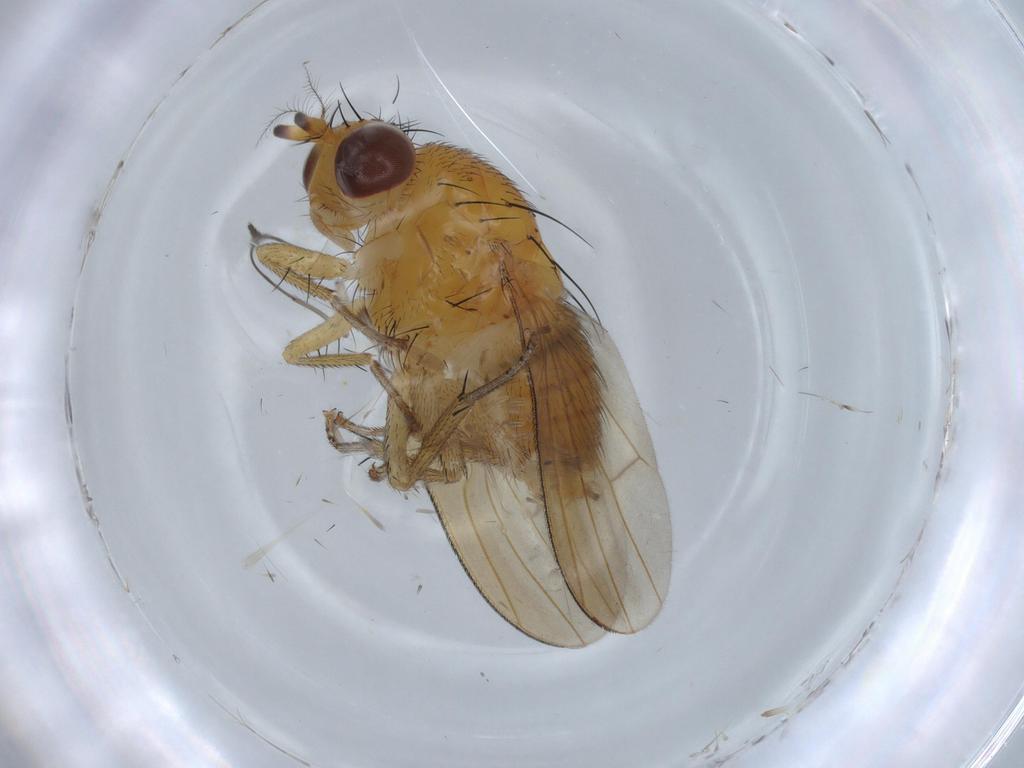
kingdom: Animalia
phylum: Arthropoda
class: Insecta
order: Diptera
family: Lauxaniidae
